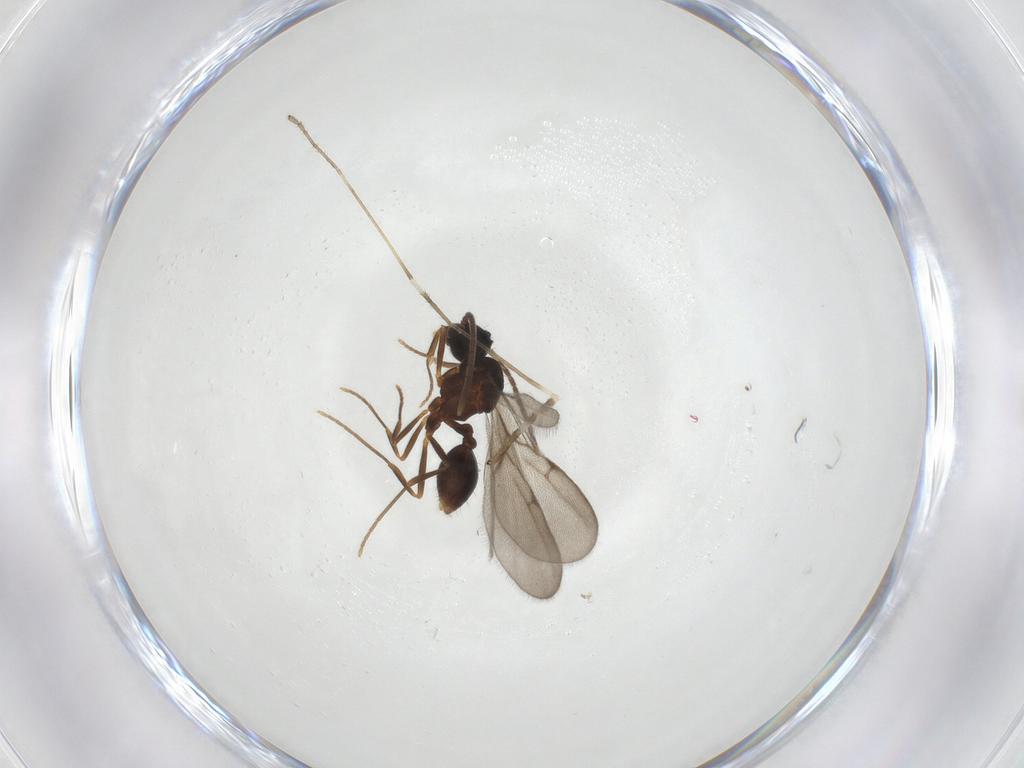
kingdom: Animalia
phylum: Arthropoda
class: Insecta
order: Hymenoptera
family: Formicidae
